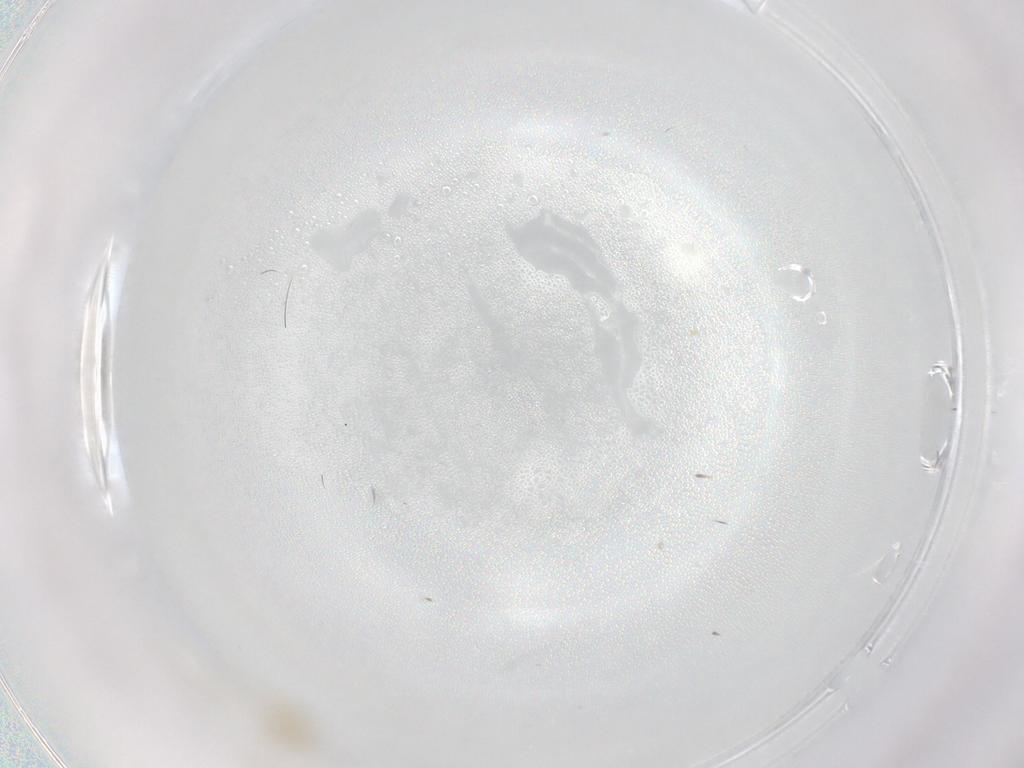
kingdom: Animalia
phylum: Arthropoda
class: Insecta
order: Diptera
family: Cecidomyiidae
